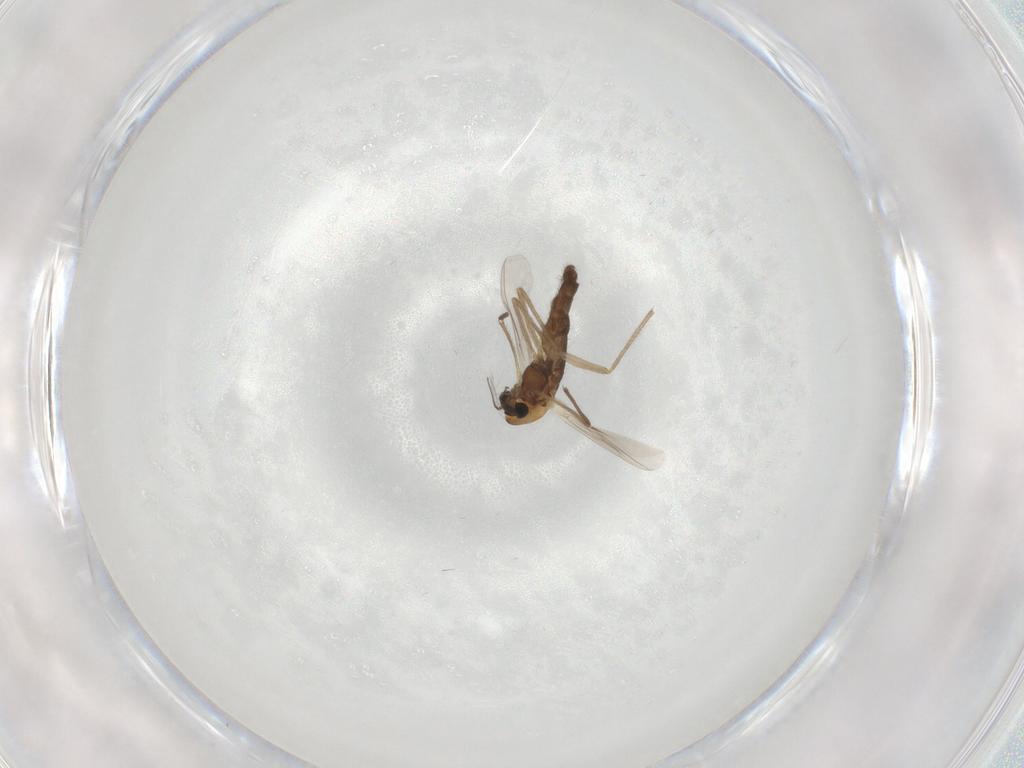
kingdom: Animalia
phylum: Arthropoda
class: Insecta
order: Diptera
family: Chironomidae
